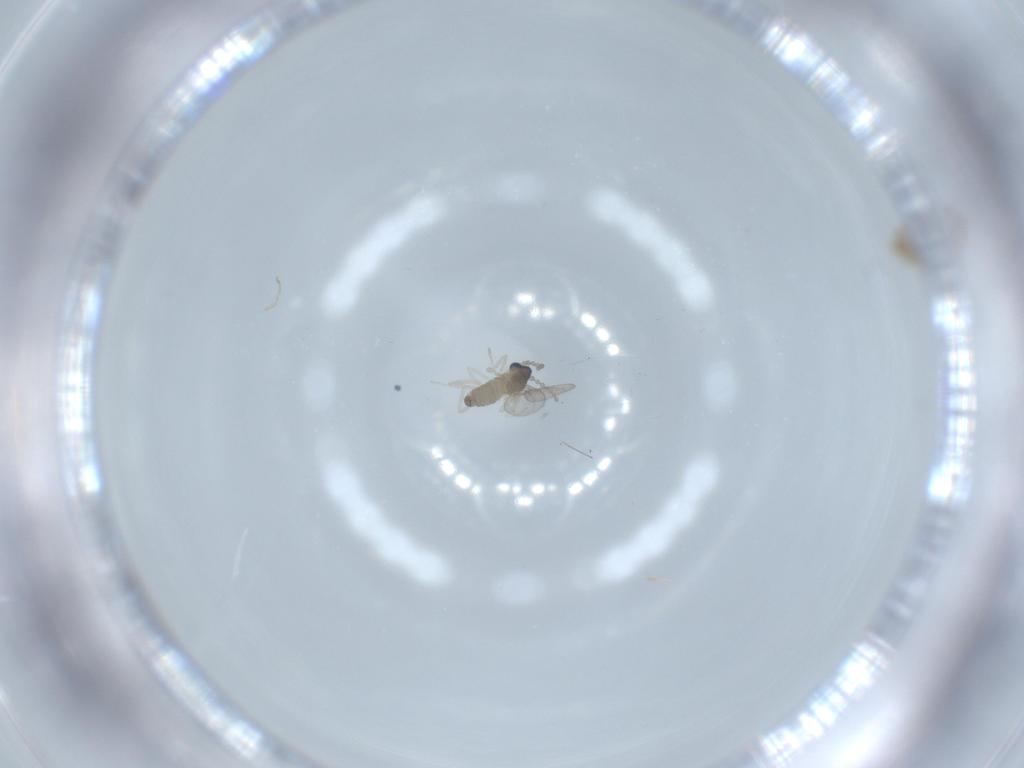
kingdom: Animalia
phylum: Arthropoda
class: Insecta
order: Diptera
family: Cecidomyiidae
